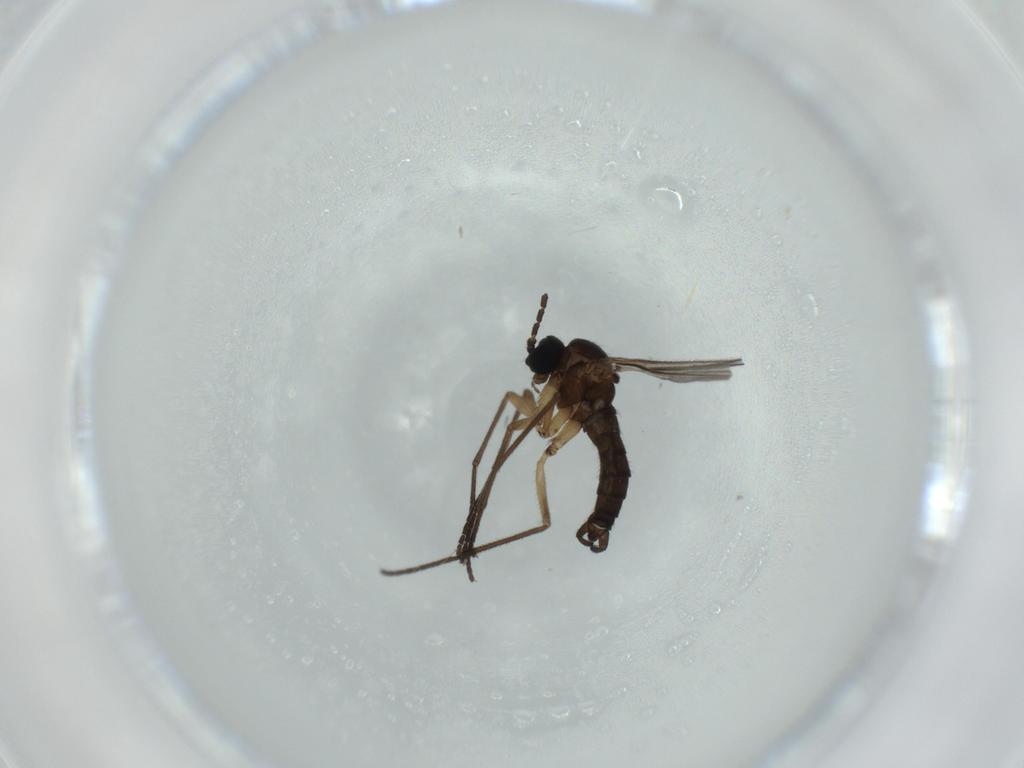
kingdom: Animalia
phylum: Arthropoda
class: Insecta
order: Diptera
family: Sciaridae
